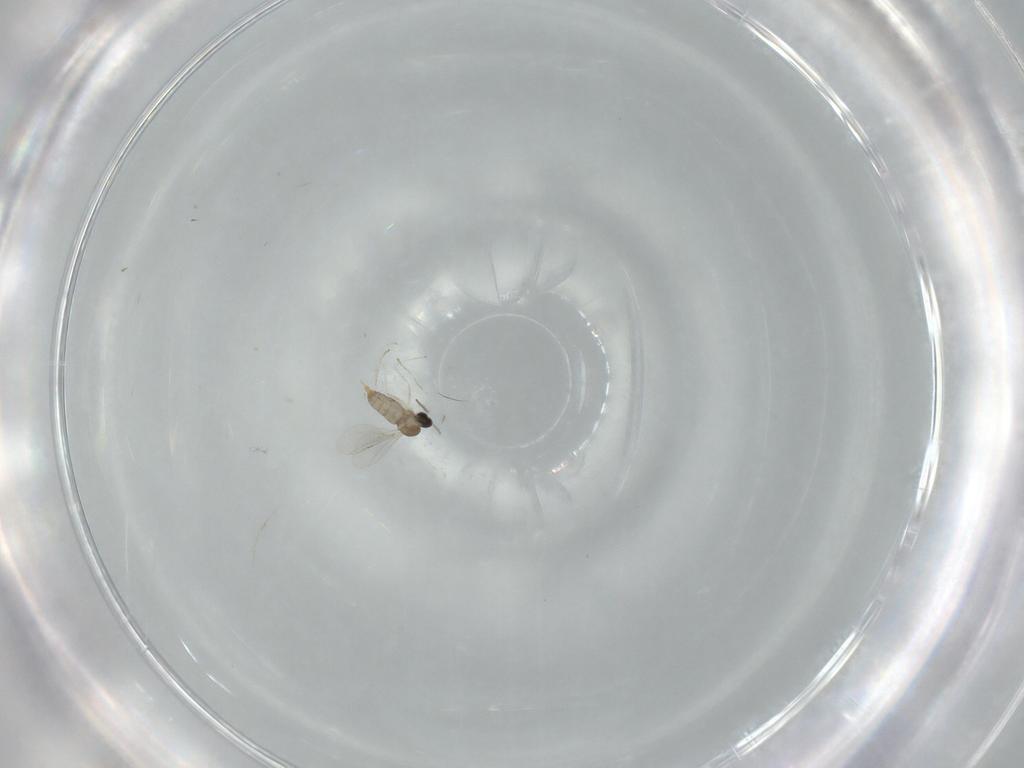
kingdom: Animalia
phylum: Arthropoda
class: Insecta
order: Diptera
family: Cecidomyiidae
